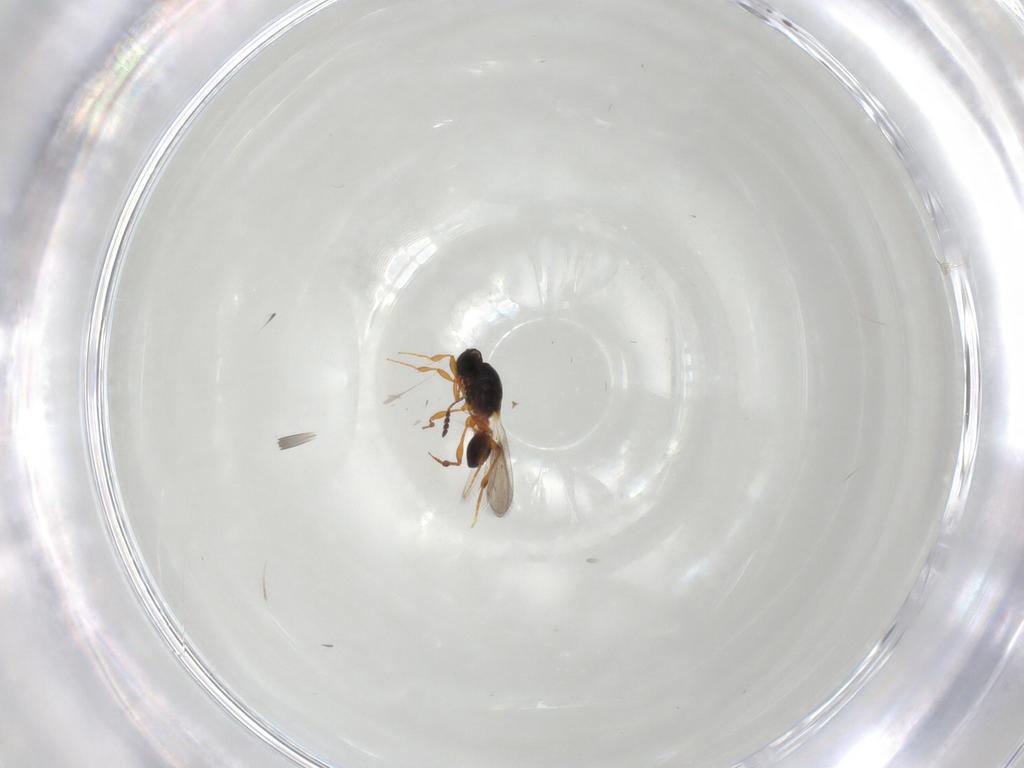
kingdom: Animalia
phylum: Arthropoda
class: Insecta
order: Hymenoptera
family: Platygastridae
